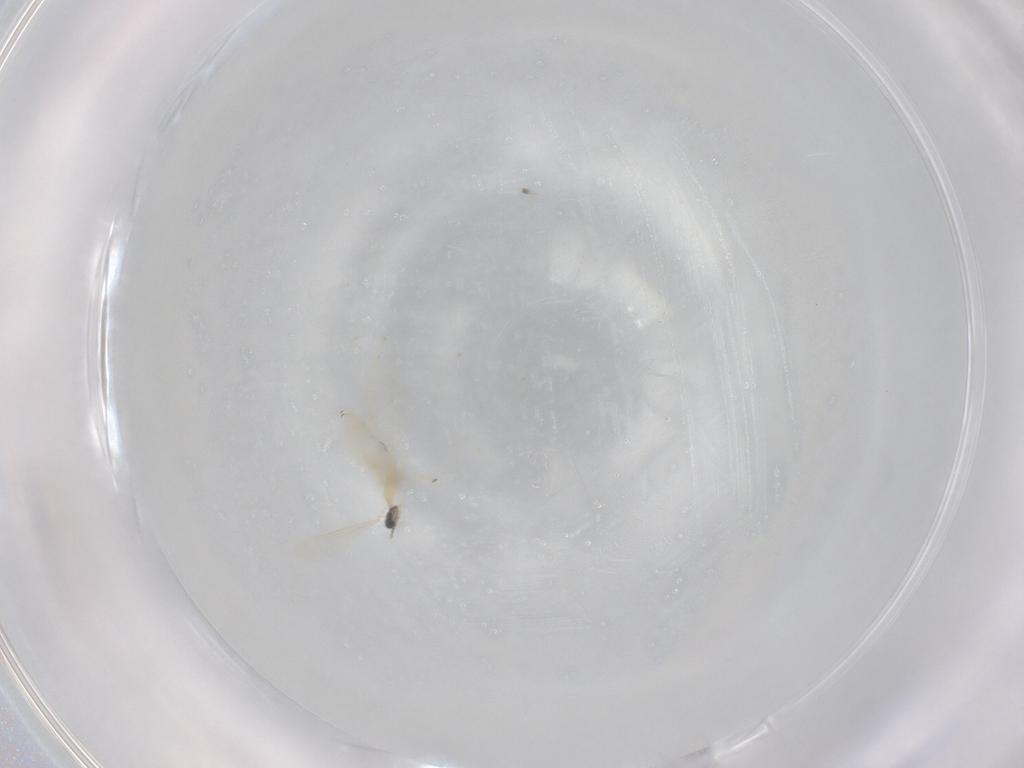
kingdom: Animalia
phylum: Arthropoda
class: Insecta
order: Diptera
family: Cecidomyiidae
